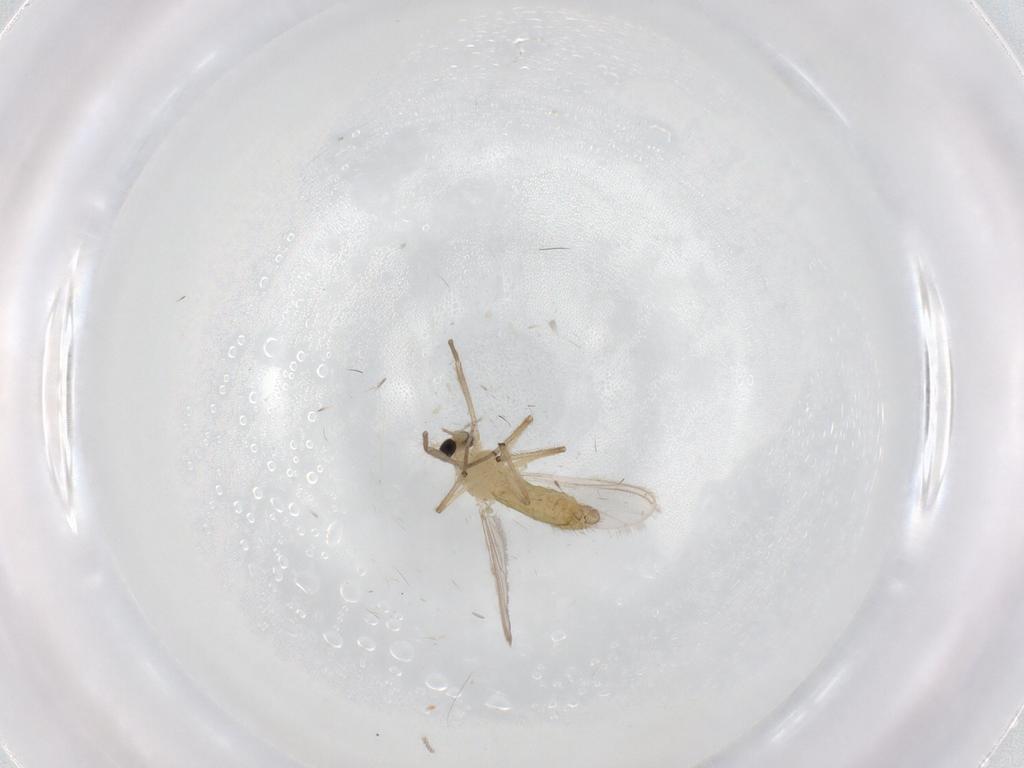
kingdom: Animalia
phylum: Arthropoda
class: Insecta
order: Diptera
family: Chironomidae
